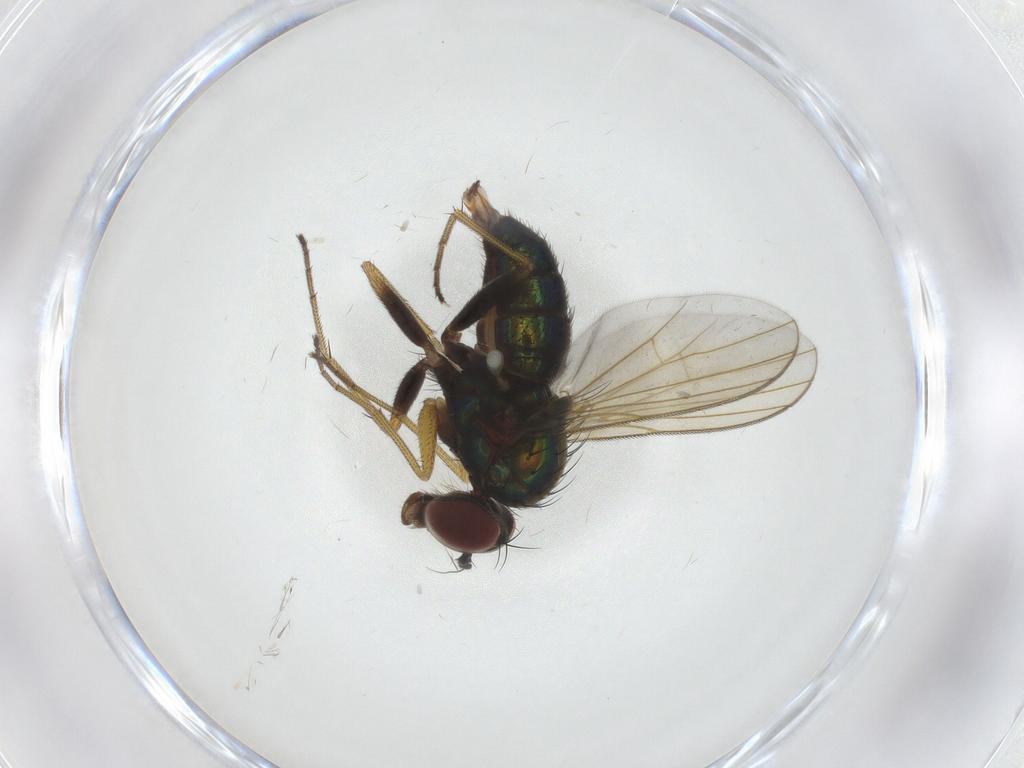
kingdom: Animalia
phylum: Arthropoda
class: Insecta
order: Diptera
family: Dolichopodidae
